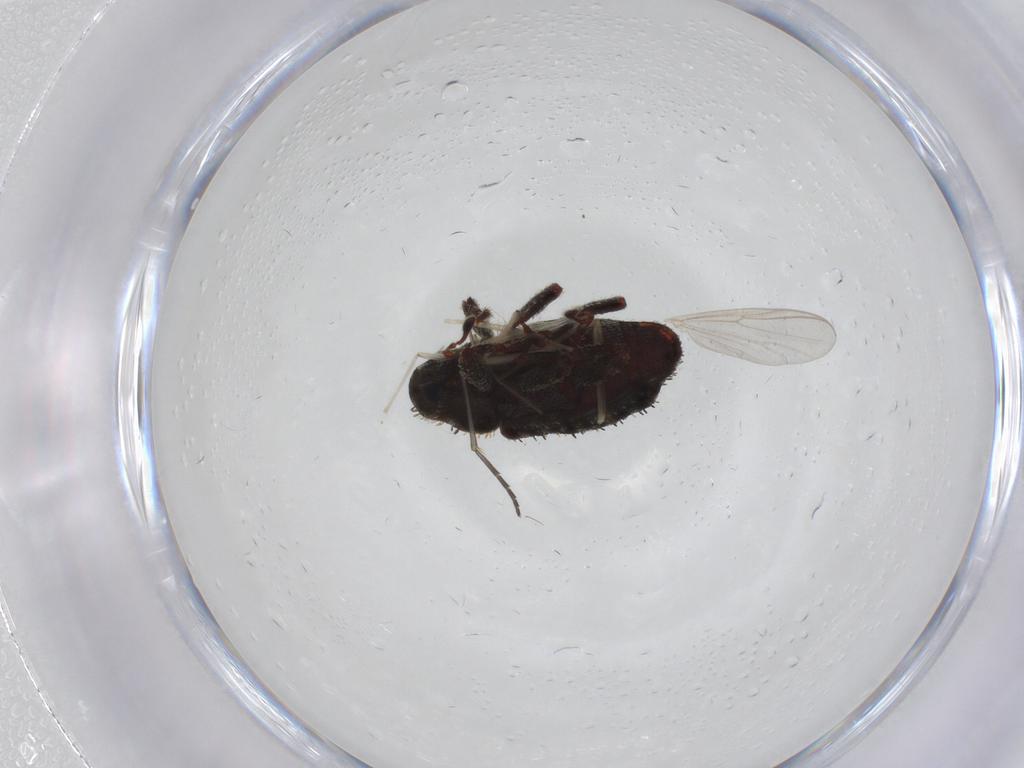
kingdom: Animalia
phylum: Arthropoda
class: Insecta
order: Diptera
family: Chironomidae
